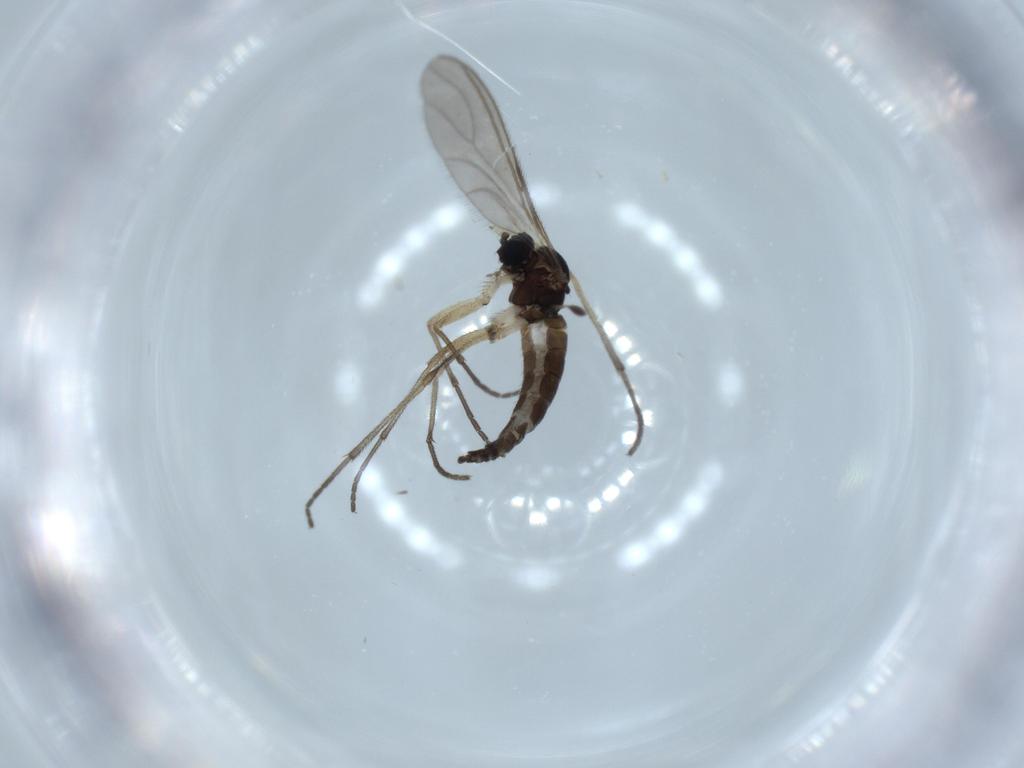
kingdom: Animalia
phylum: Arthropoda
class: Insecta
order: Diptera
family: Sciaridae
